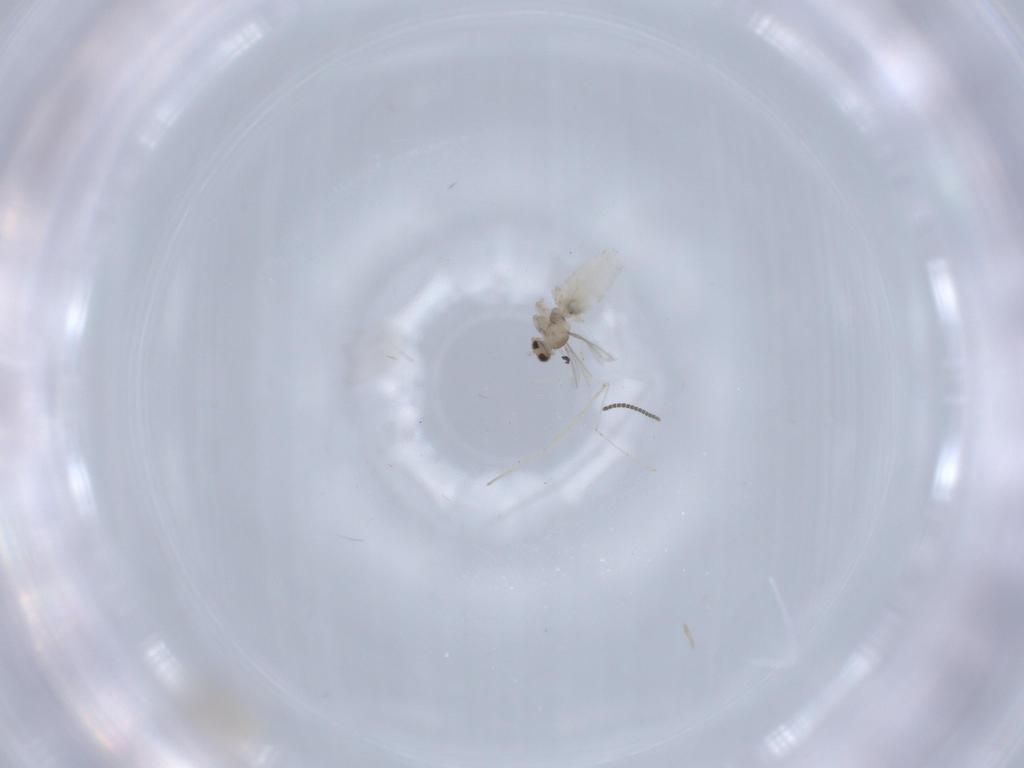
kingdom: Animalia
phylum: Arthropoda
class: Insecta
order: Diptera
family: Cecidomyiidae
